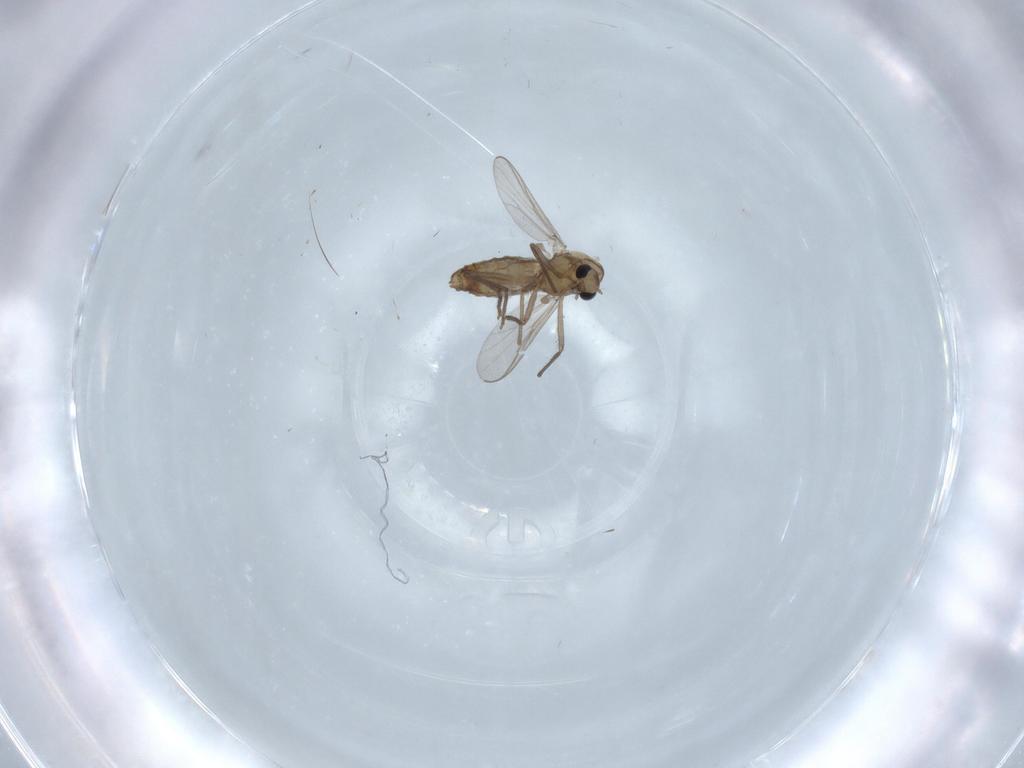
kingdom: Animalia
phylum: Arthropoda
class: Insecta
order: Diptera
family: Chironomidae
